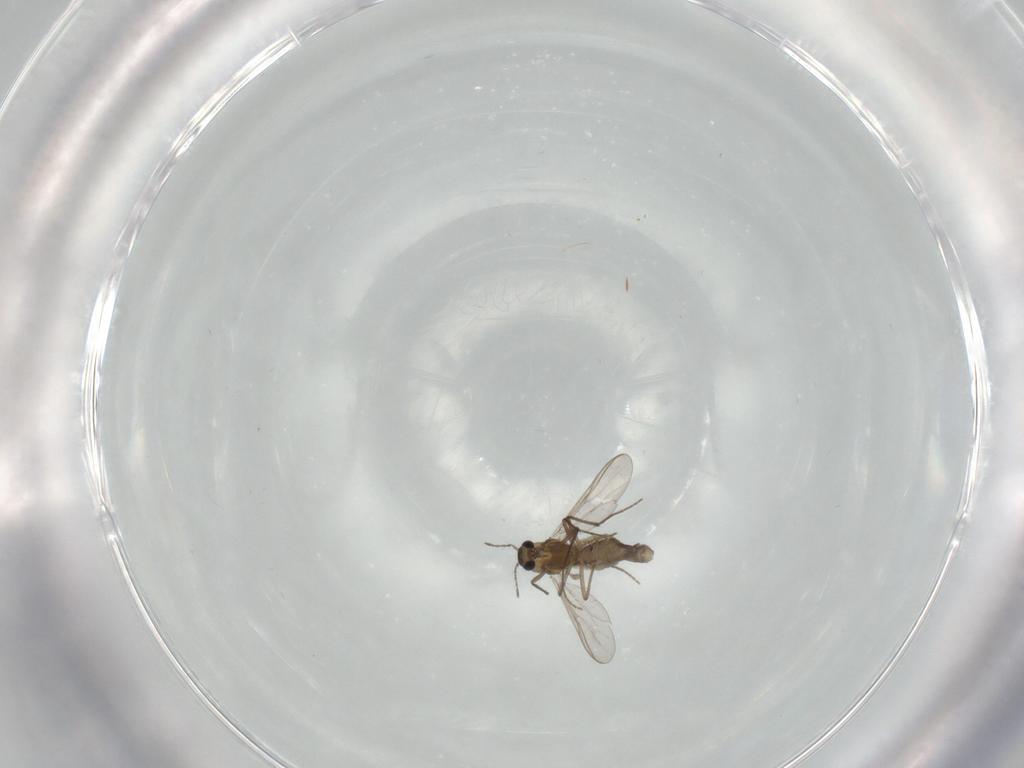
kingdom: Animalia
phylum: Arthropoda
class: Insecta
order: Diptera
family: Chironomidae
